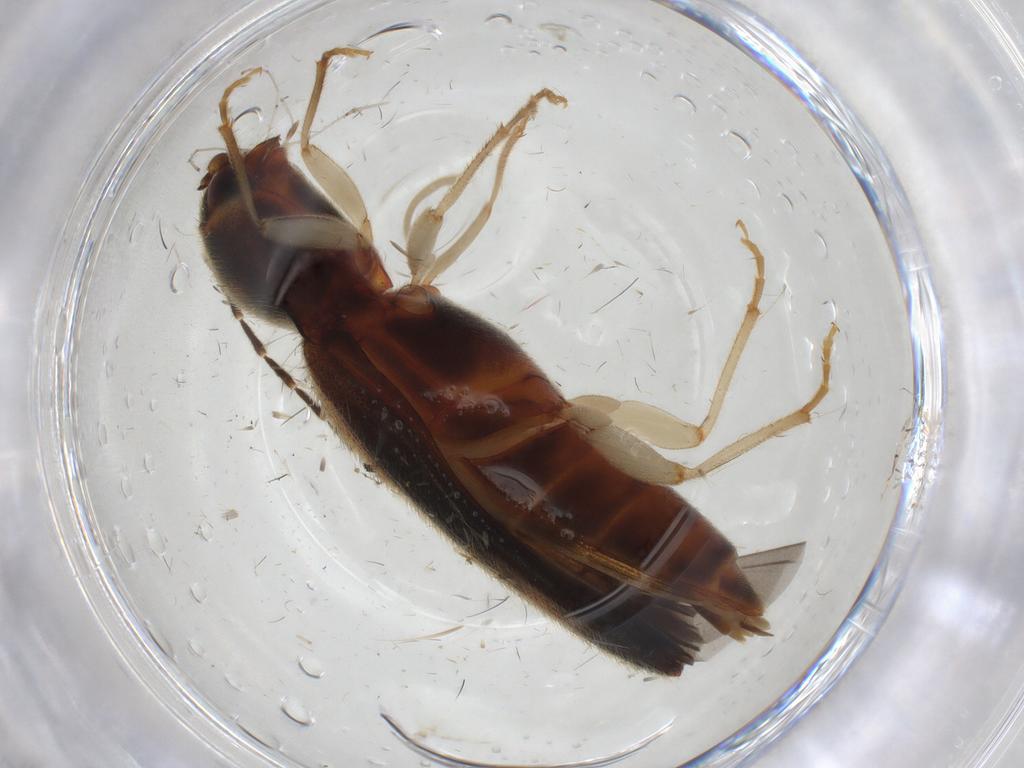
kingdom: Animalia
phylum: Arthropoda
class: Insecta
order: Coleoptera
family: Elateridae
